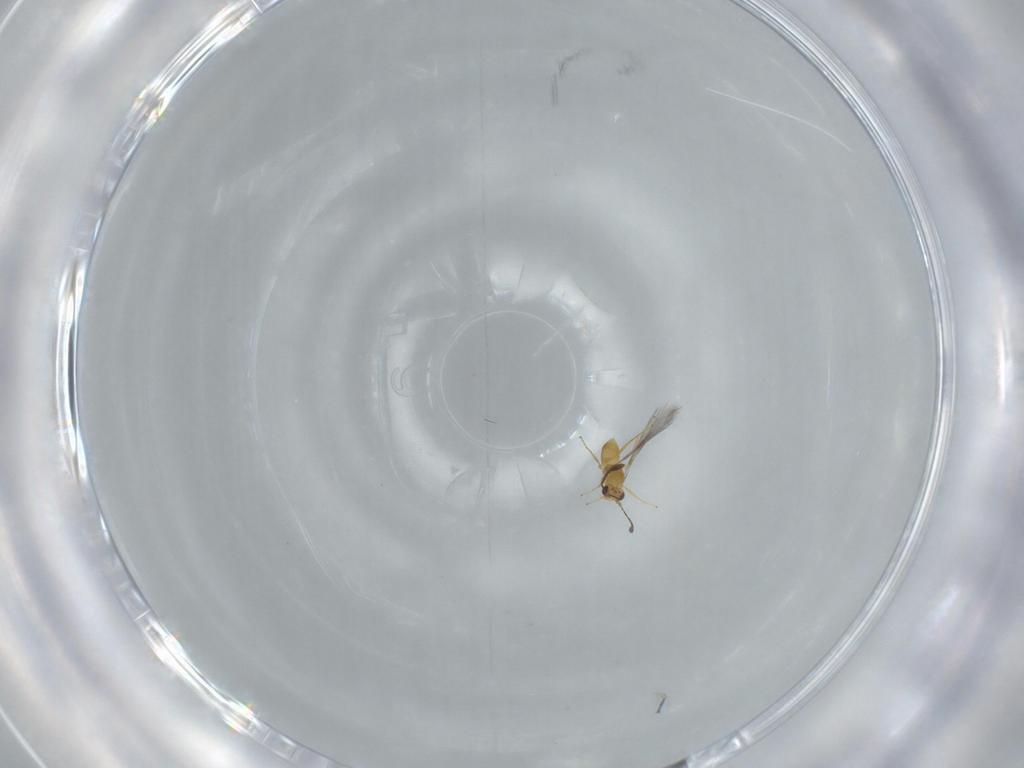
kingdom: Animalia
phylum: Arthropoda
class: Insecta
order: Hymenoptera
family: Mymaridae
